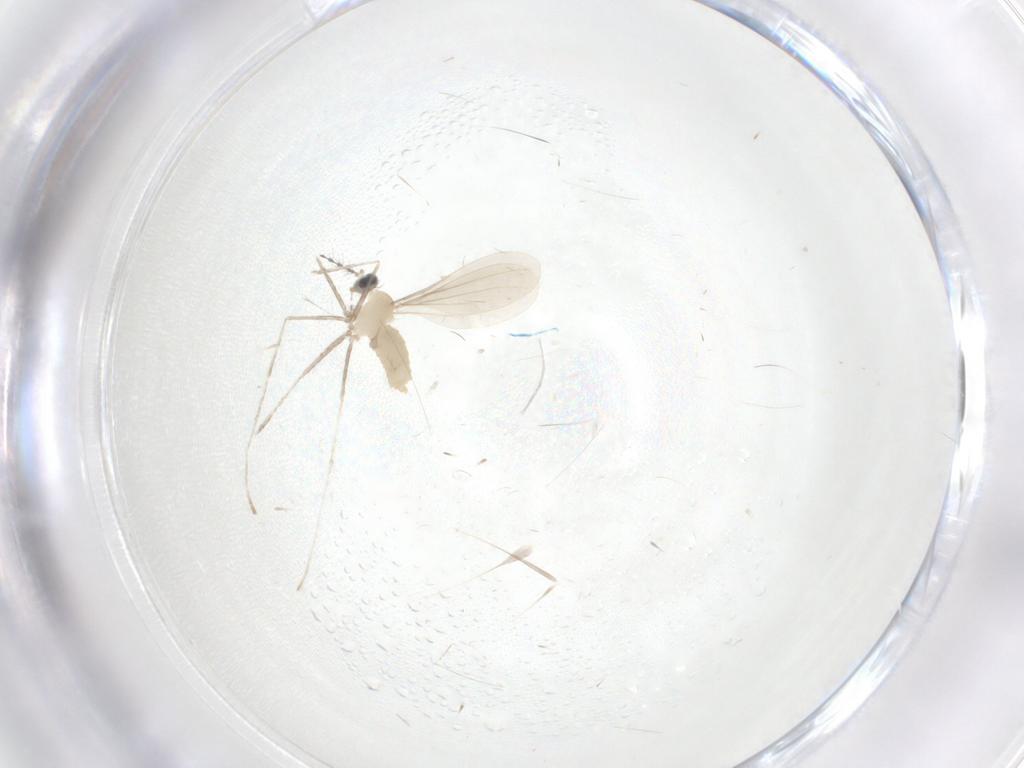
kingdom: Animalia
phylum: Arthropoda
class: Insecta
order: Diptera
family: Cecidomyiidae
